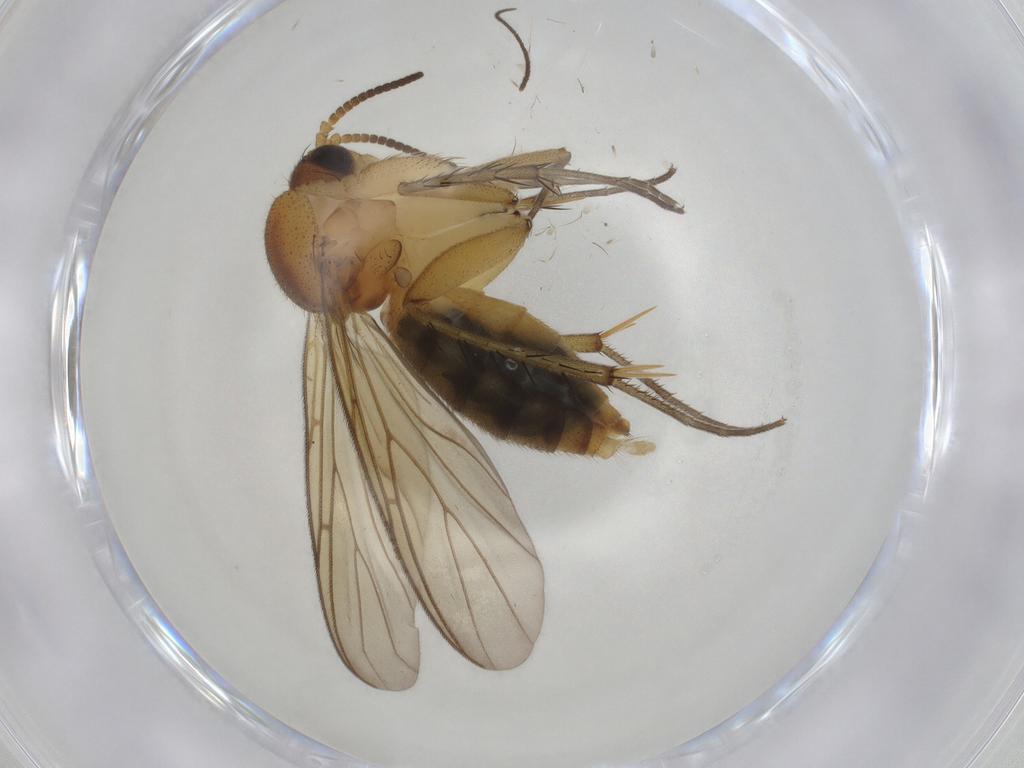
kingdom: Animalia
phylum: Arthropoda
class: Insecta
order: Diptera
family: Mycetophilidae
